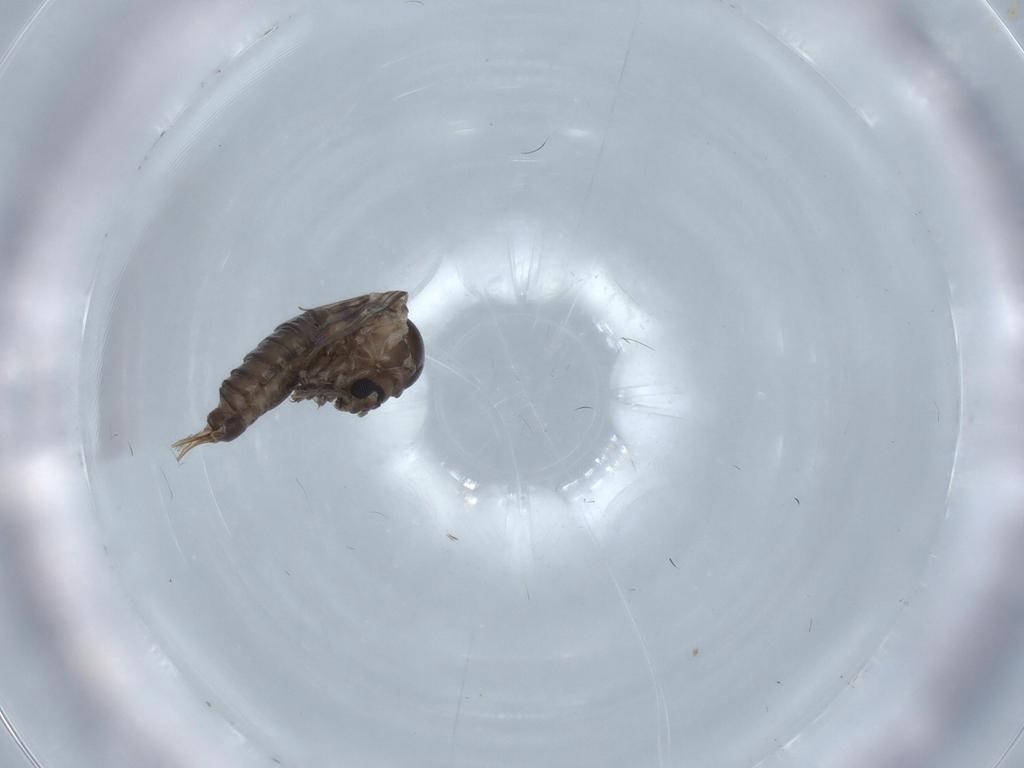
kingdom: Animalia
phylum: Arthropoda
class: Insecta
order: Diptera
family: Psychodidae
